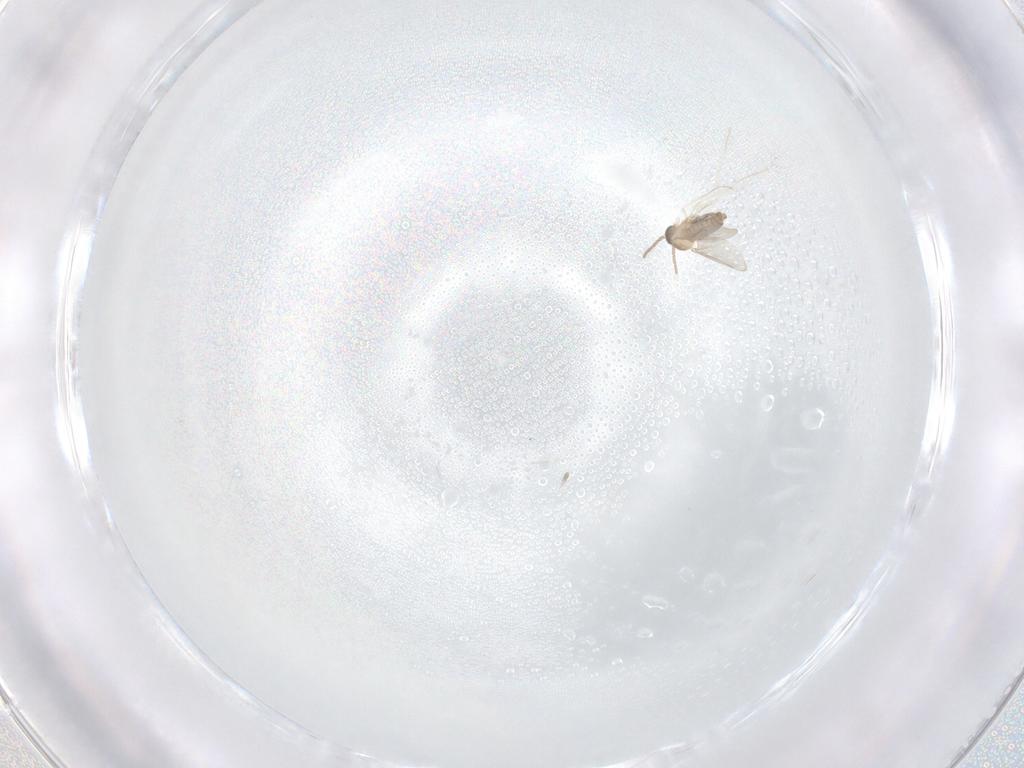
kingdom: Animalia
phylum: Arthropoda
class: Insecta
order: Diptera
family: Cecidomyiidae
